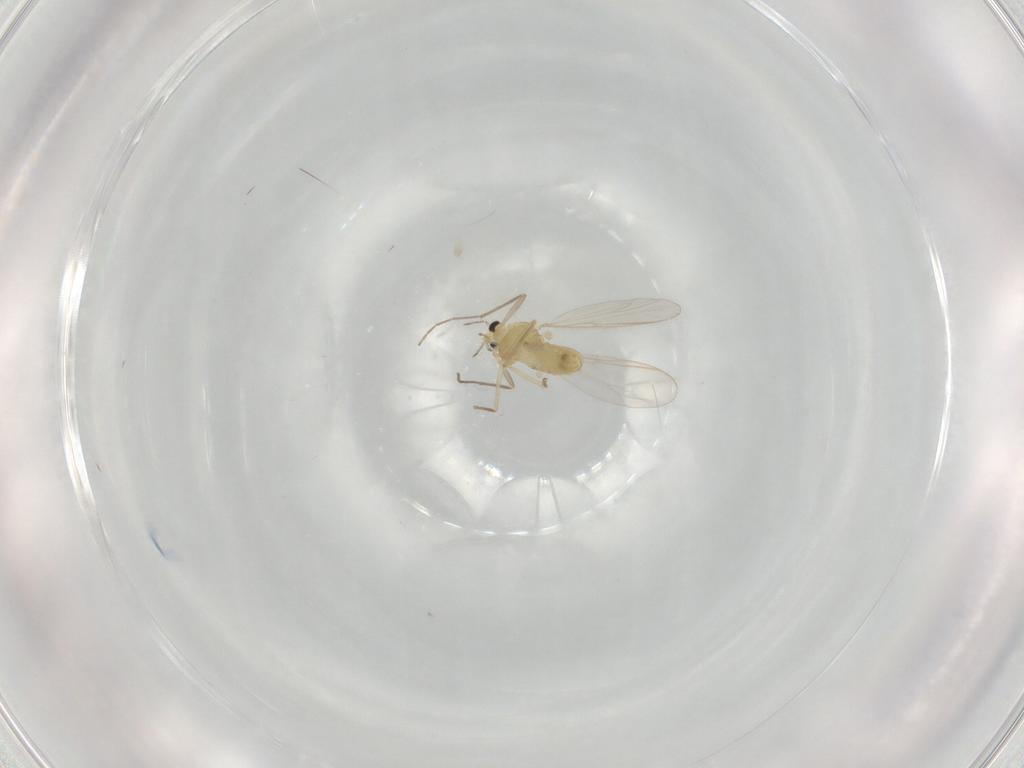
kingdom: Animalia
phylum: Arthropoda
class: Insecta
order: Diptera
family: Chironomidae
